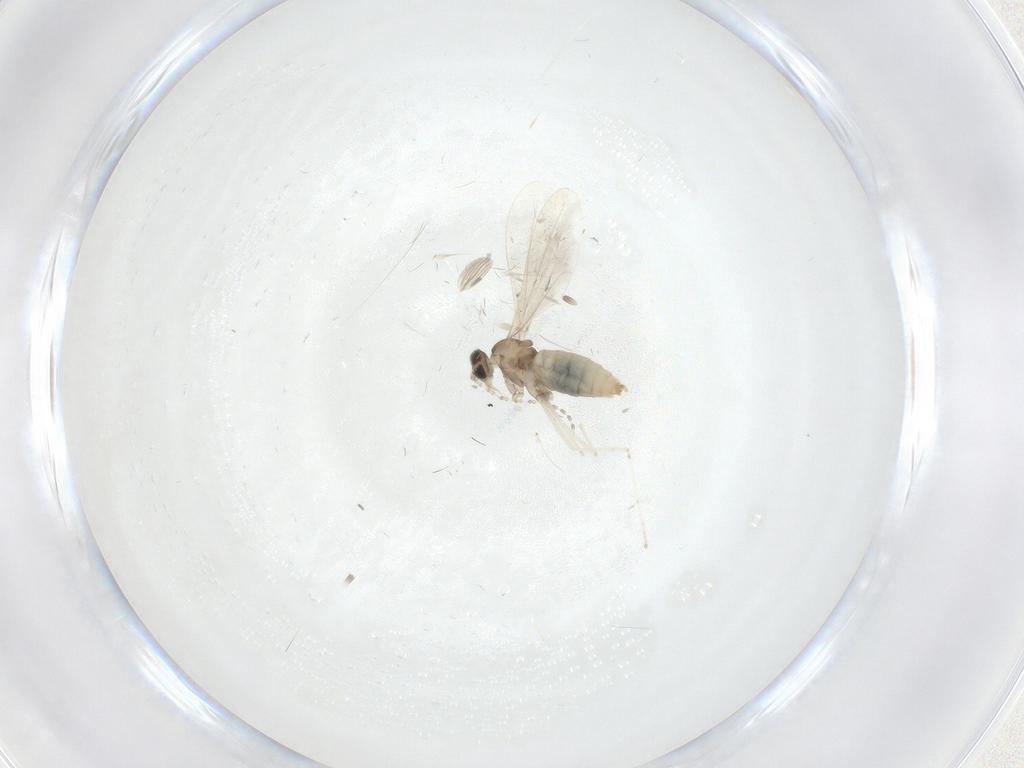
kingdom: Animalia
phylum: Arthropoda
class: Insecta
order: Diptera
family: Cecidomyiidae
